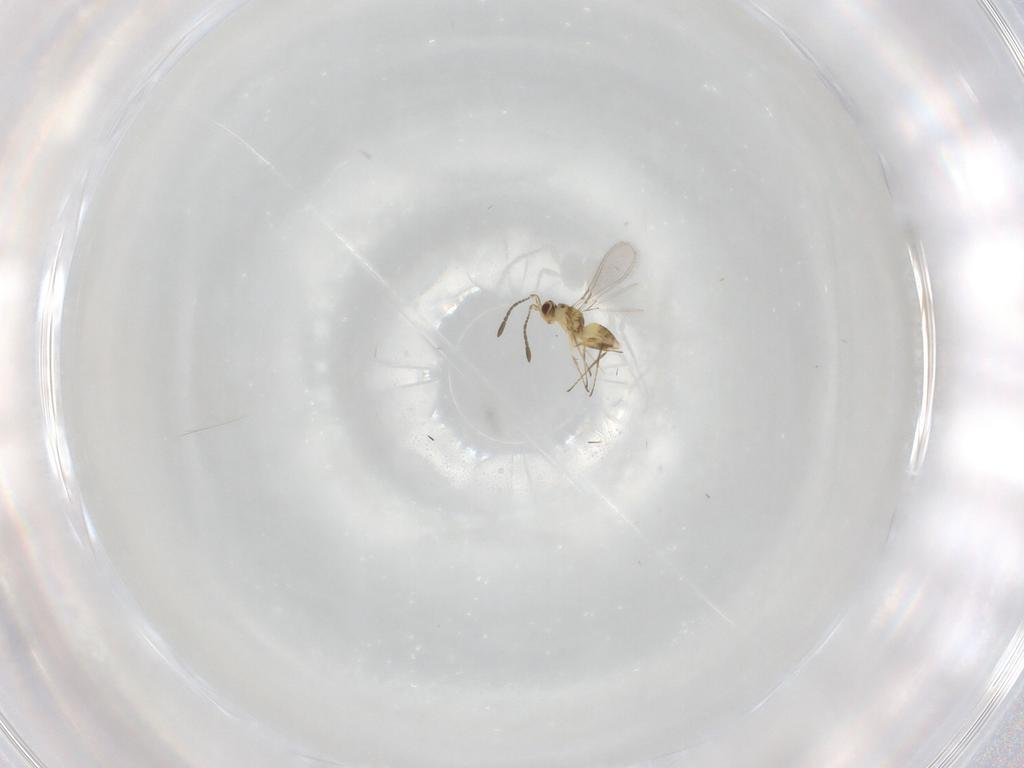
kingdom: Animalia
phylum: Arthropoda
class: Insecta
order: Hymenoptera
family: Mymaridae
